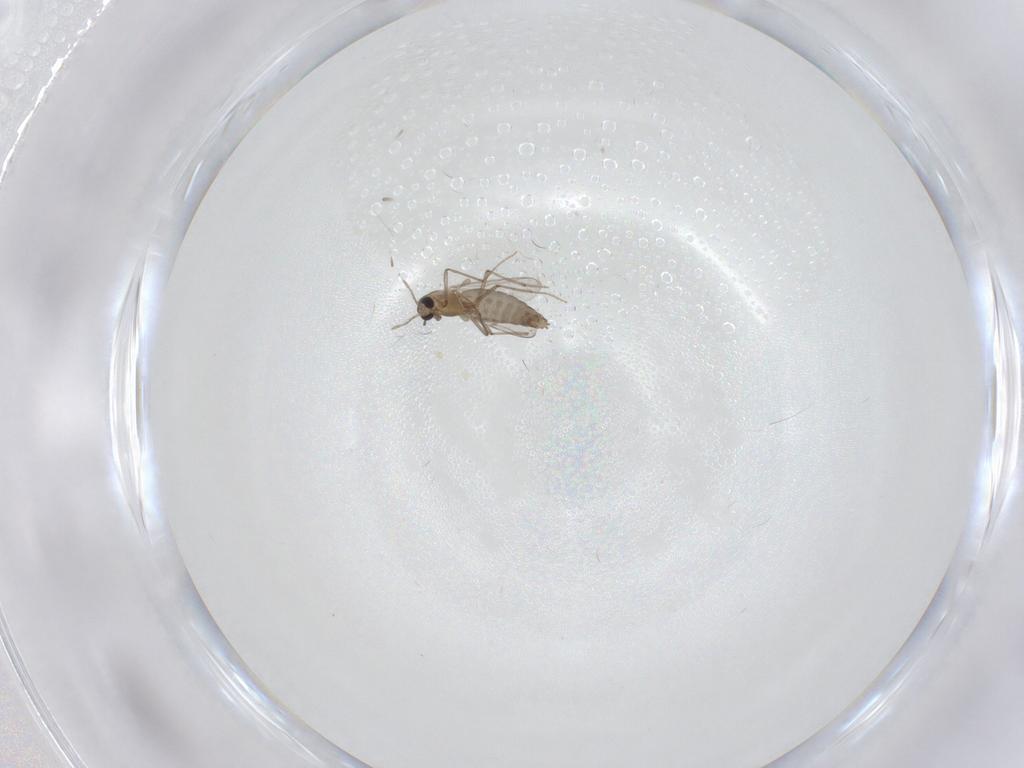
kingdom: Animalia
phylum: Arthropoda
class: Insecta
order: Diptera
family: Chironomidae
